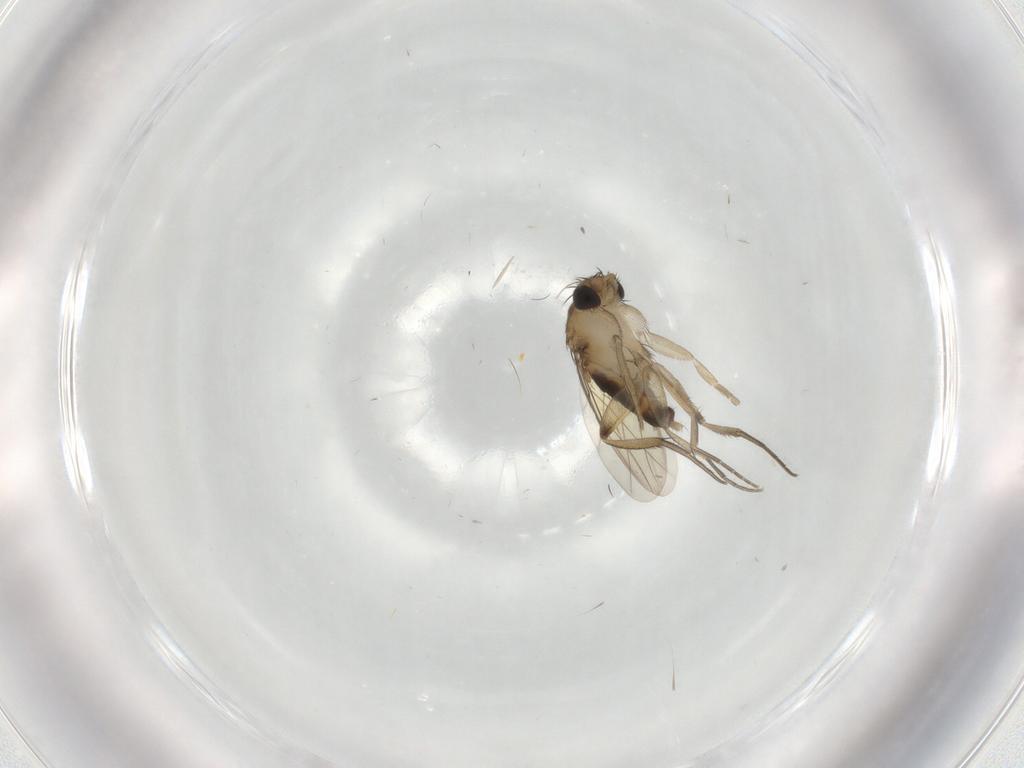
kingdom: Animalia
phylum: Arthropoda
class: Insecta
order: Diptera
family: Phoridae
